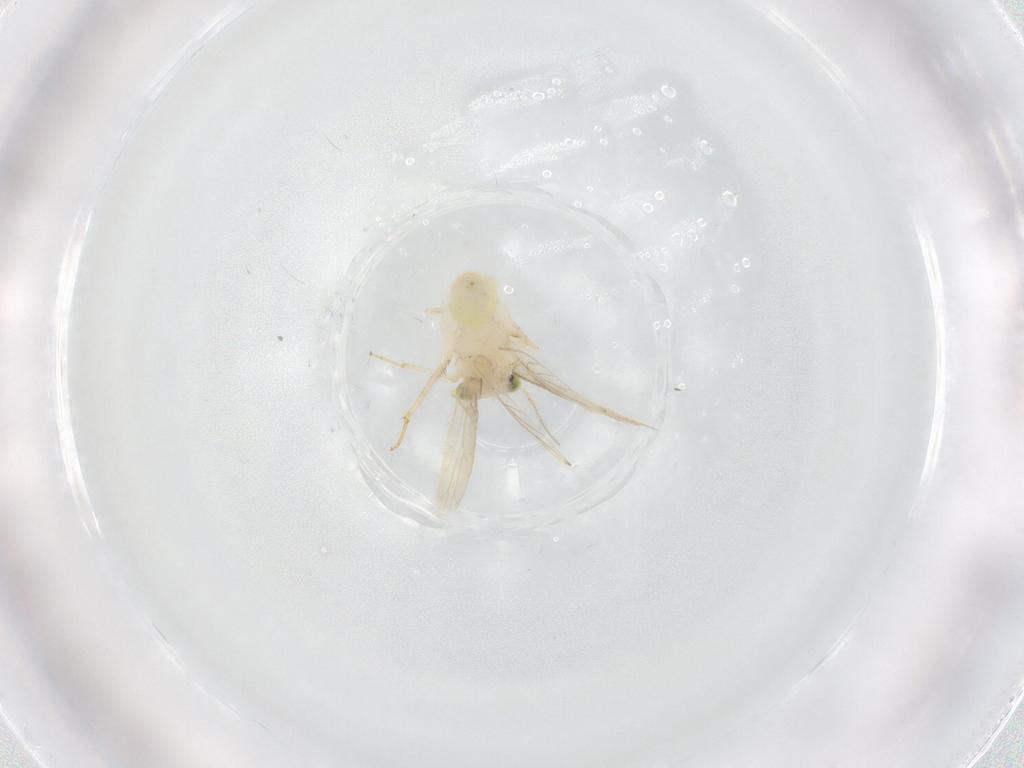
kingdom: Animalia
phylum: Arthropoda
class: Insecta
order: Psocodea
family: Lepidopsocidae
